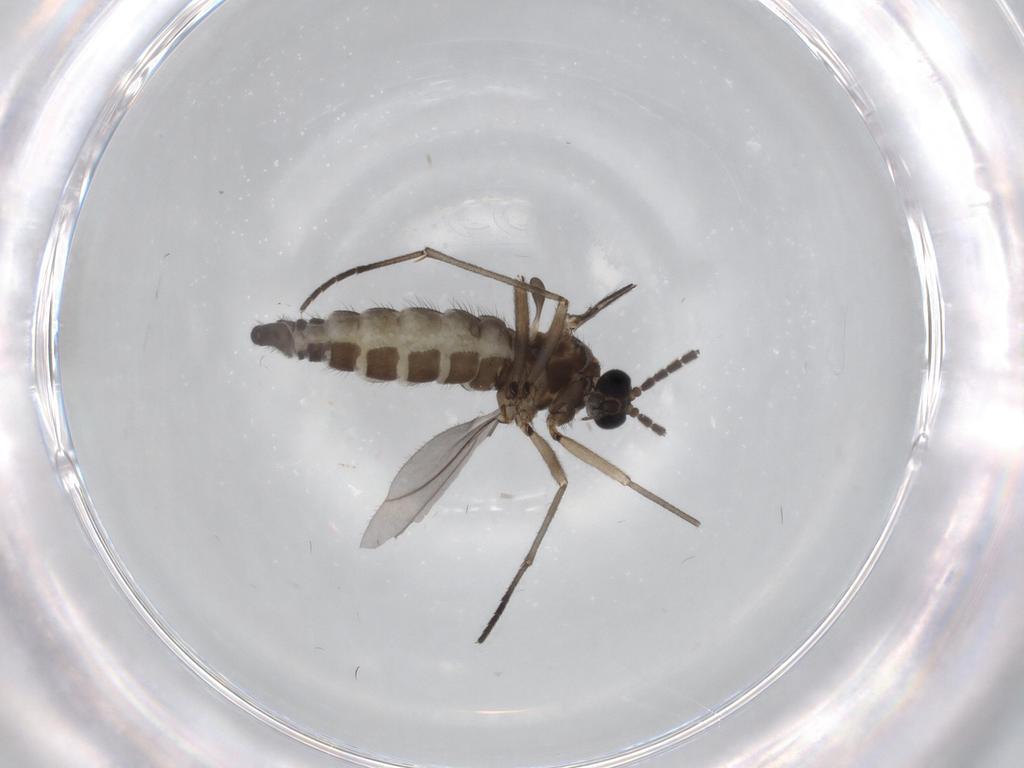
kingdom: Animalia
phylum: Arthropoda
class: Insecta
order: Diptera
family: Sciaridae
